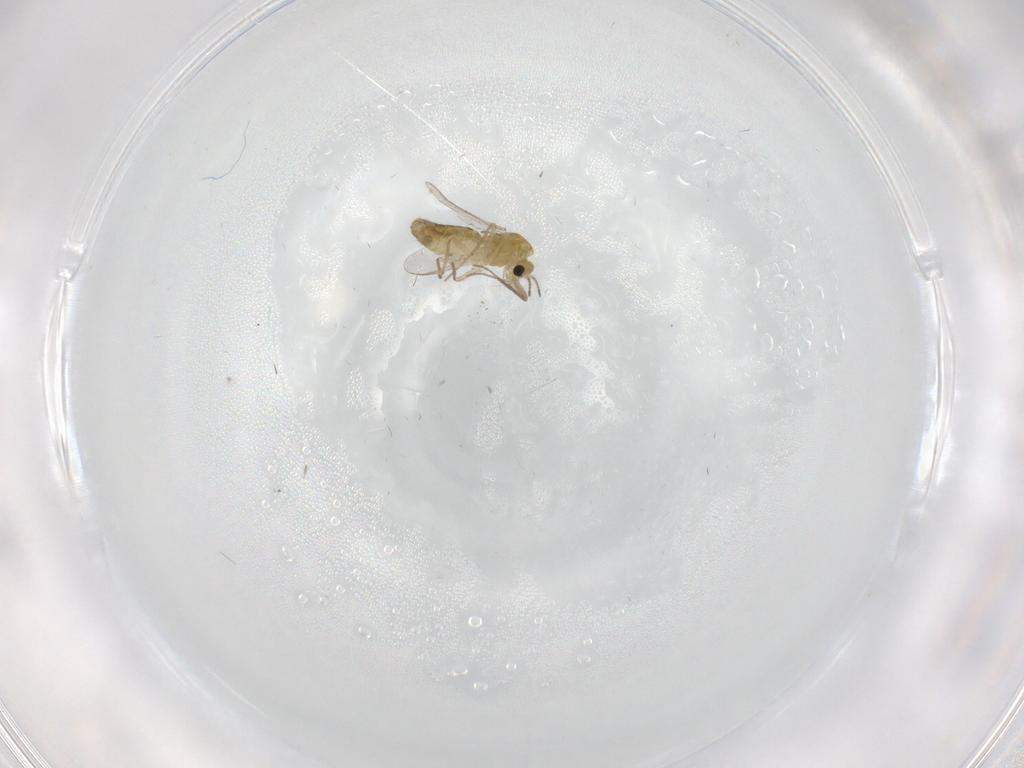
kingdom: Animalia
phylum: Arthropoda
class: Insecta
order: Diptera
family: Chironomidae
